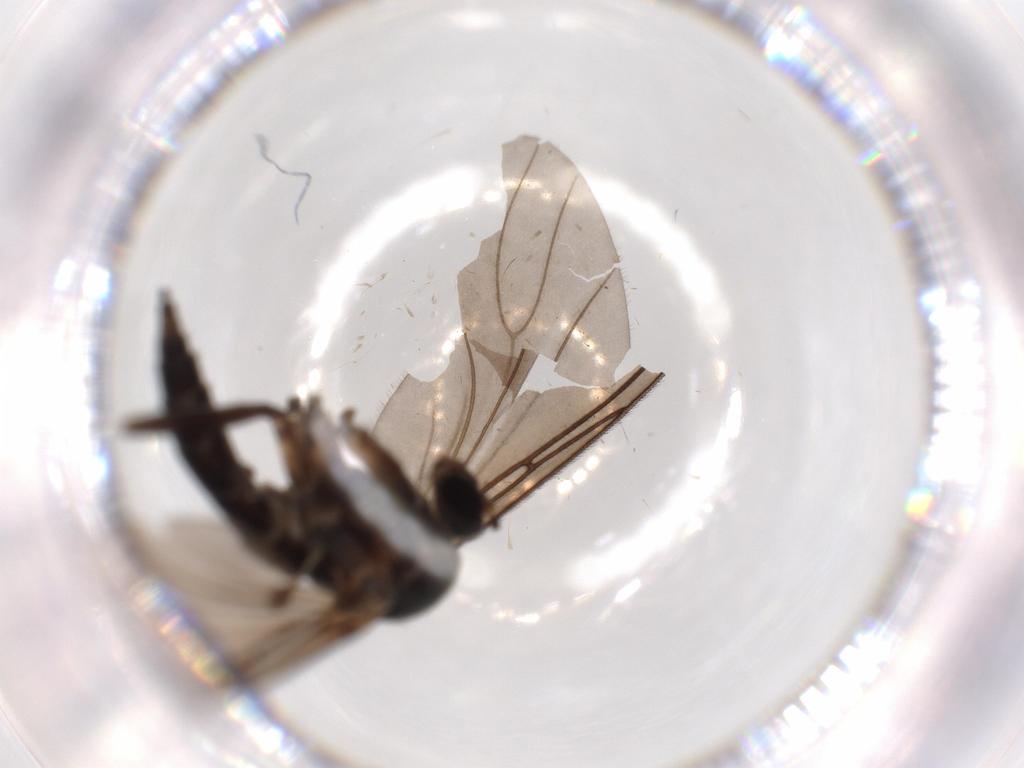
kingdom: Animalia
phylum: Arthropoda
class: Insecta
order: Diptera
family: Sciaridae
